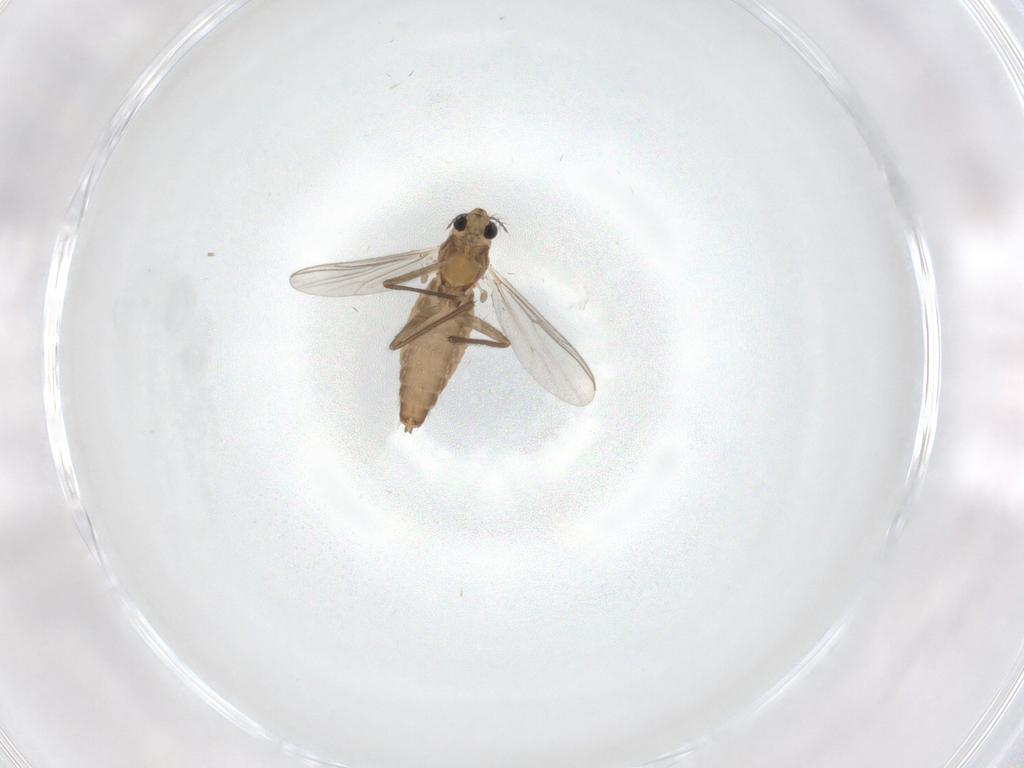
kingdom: Animalia
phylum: Arthropoda
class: Insecta
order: Diptera
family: Chironomidae
